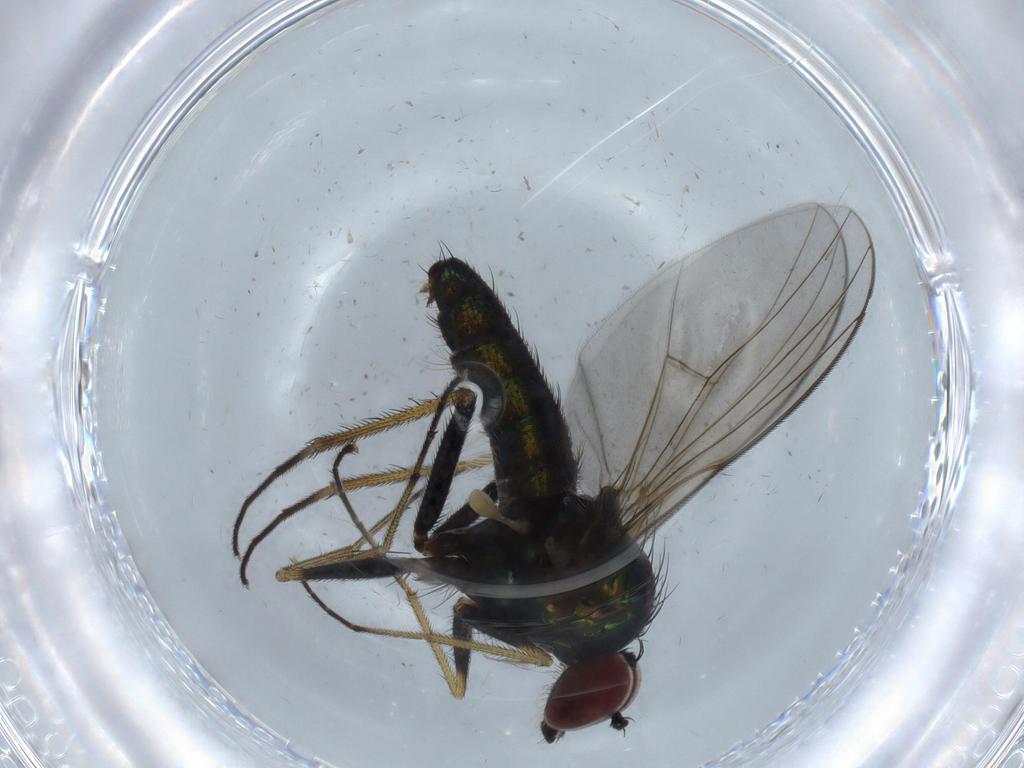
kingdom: Animalia
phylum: Arthropoda
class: Insecta
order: Diptera
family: Dolichopodidae
